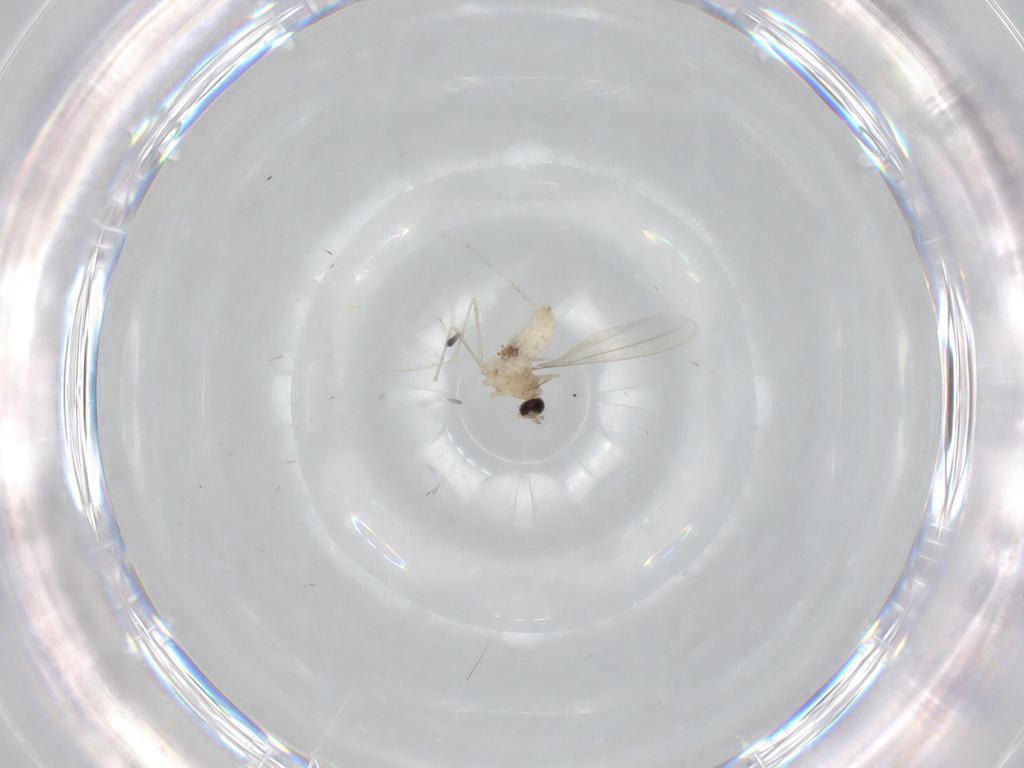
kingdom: Animalia
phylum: Arthropoda
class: Insecta
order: Diptera
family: Cecidomyiidae
